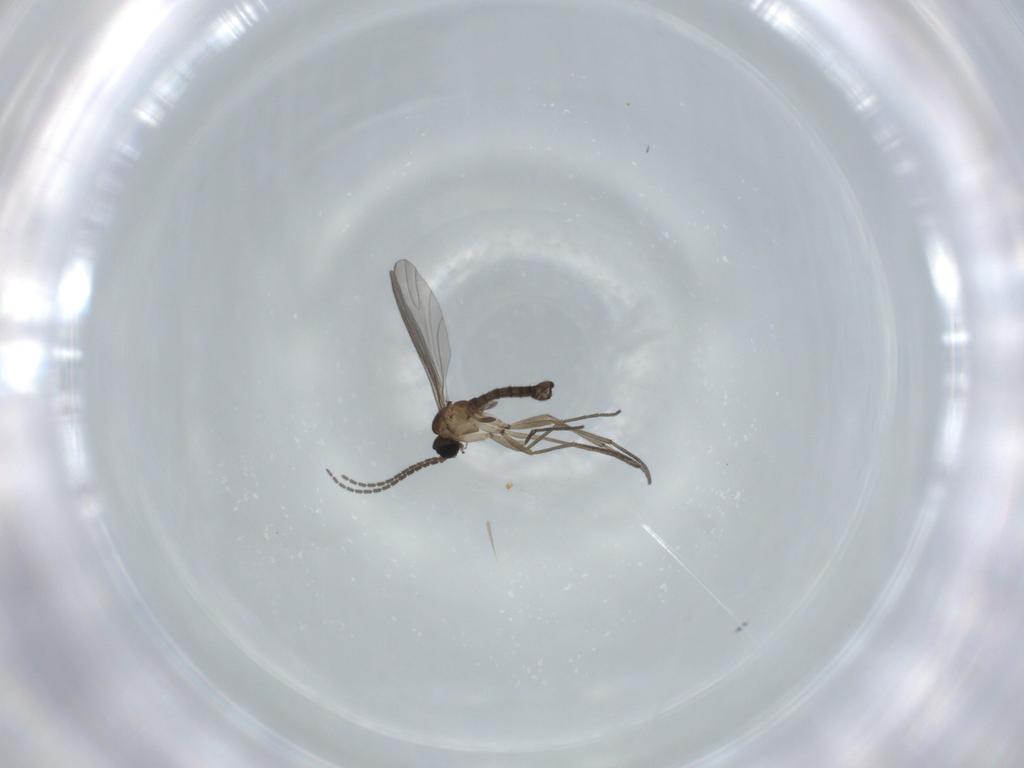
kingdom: Animalia
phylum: Arthropoda
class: Insecta
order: Diptera
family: Sciaridae
